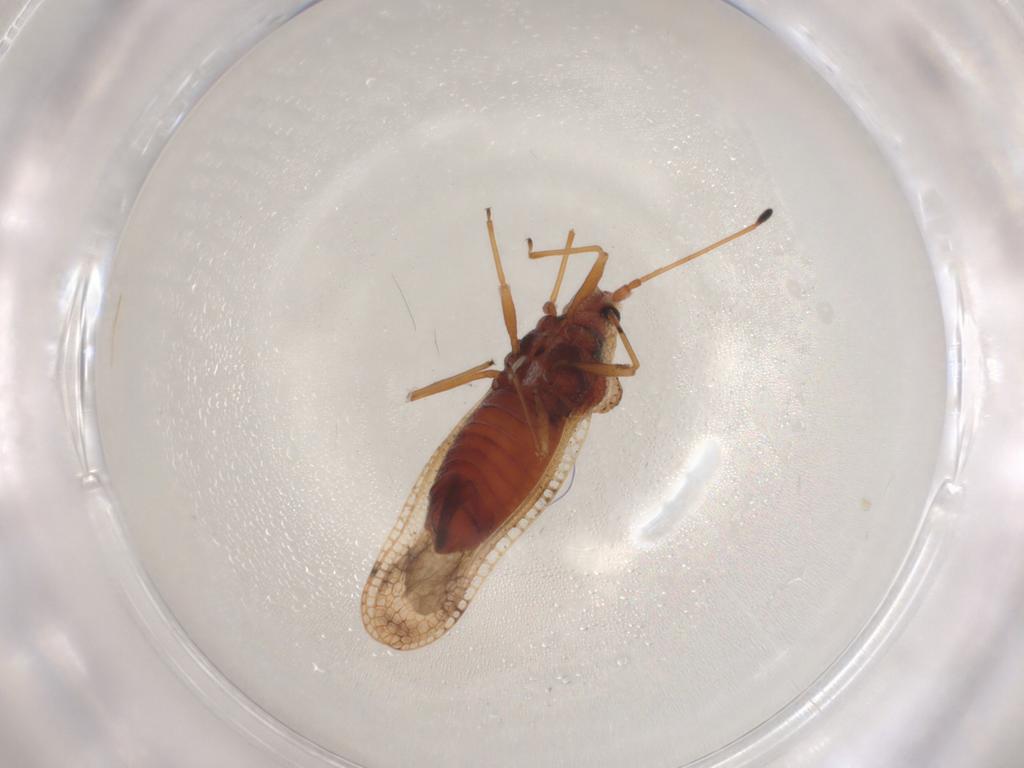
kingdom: Animalia
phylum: Arthropoda
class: Insecta
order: Hemiptera
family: Pentatomidae
